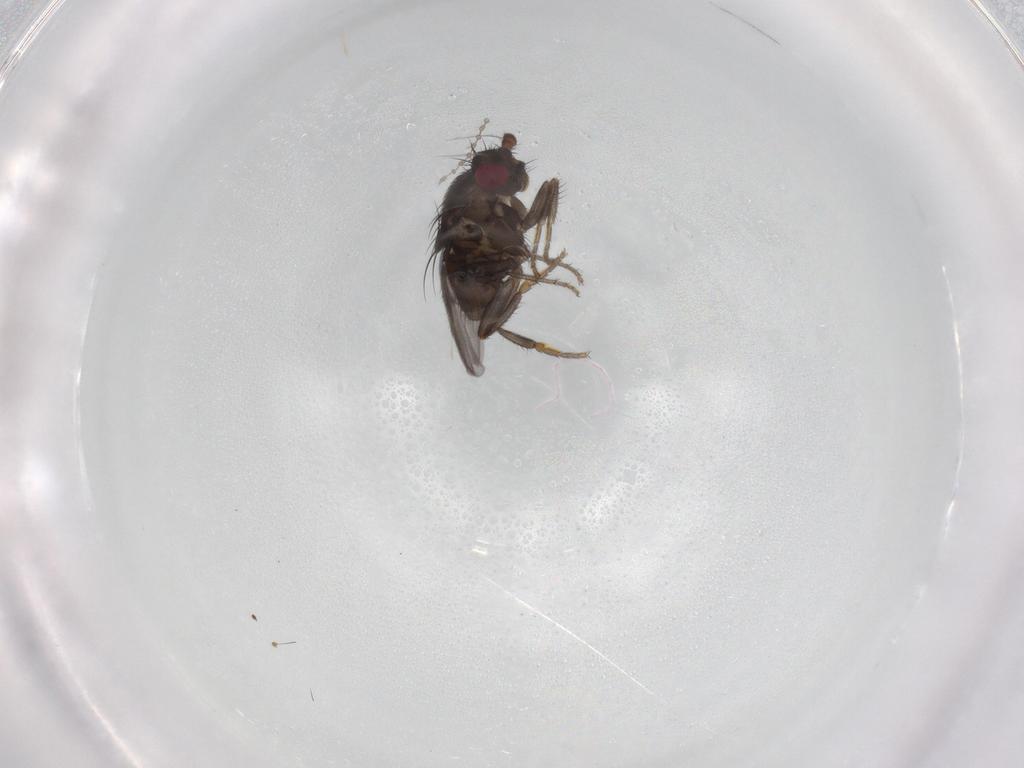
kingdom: Animalia
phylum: Arthropoda
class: Insecta
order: Diptera
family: Sphaeroceridae
